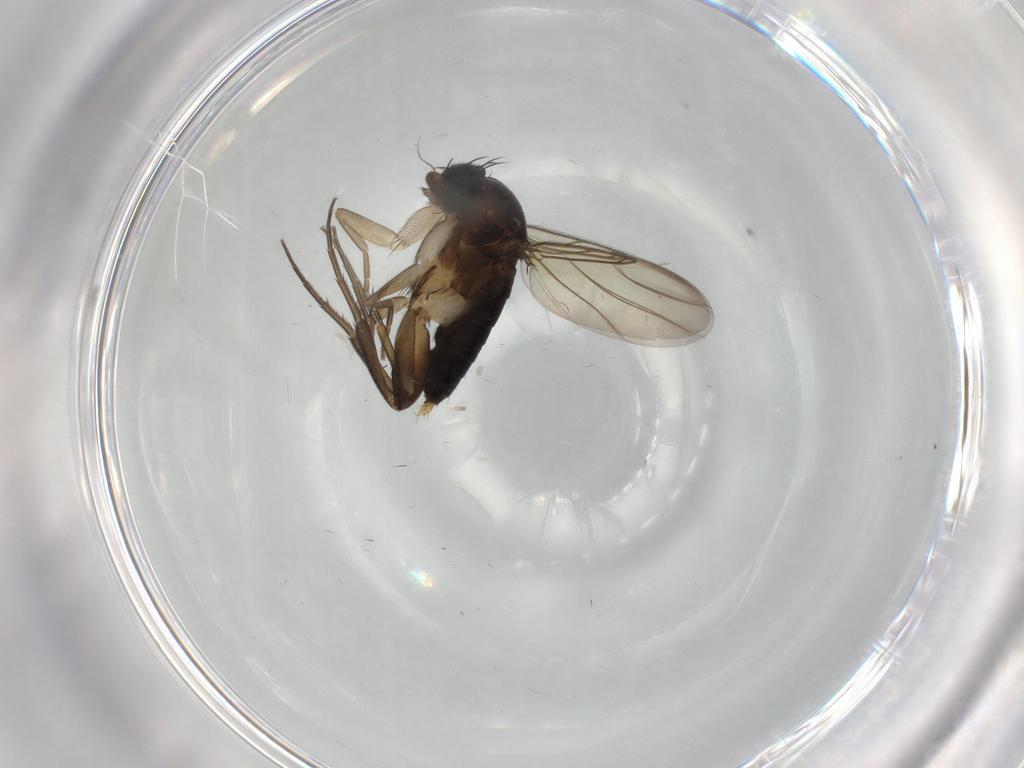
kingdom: Animalia
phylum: Arthropoda
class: Insecta
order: Diptera
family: Phoridae
